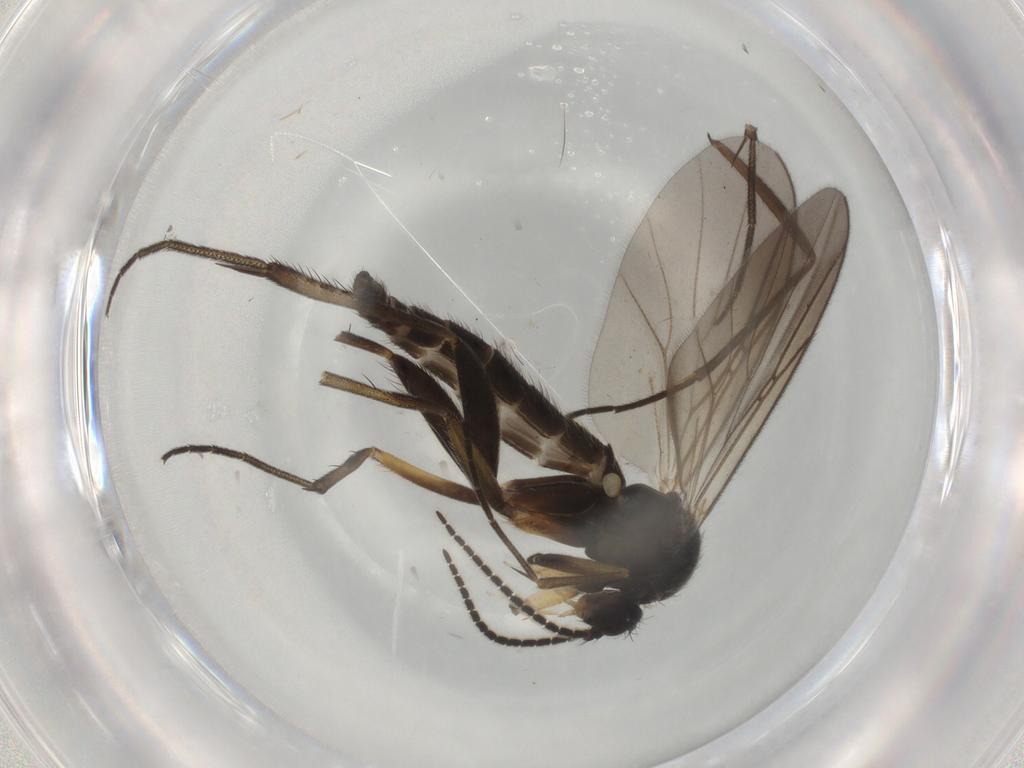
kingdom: Animalia
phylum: Arthropoda
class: Insecta
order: Diptera
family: Mycetophilidae
